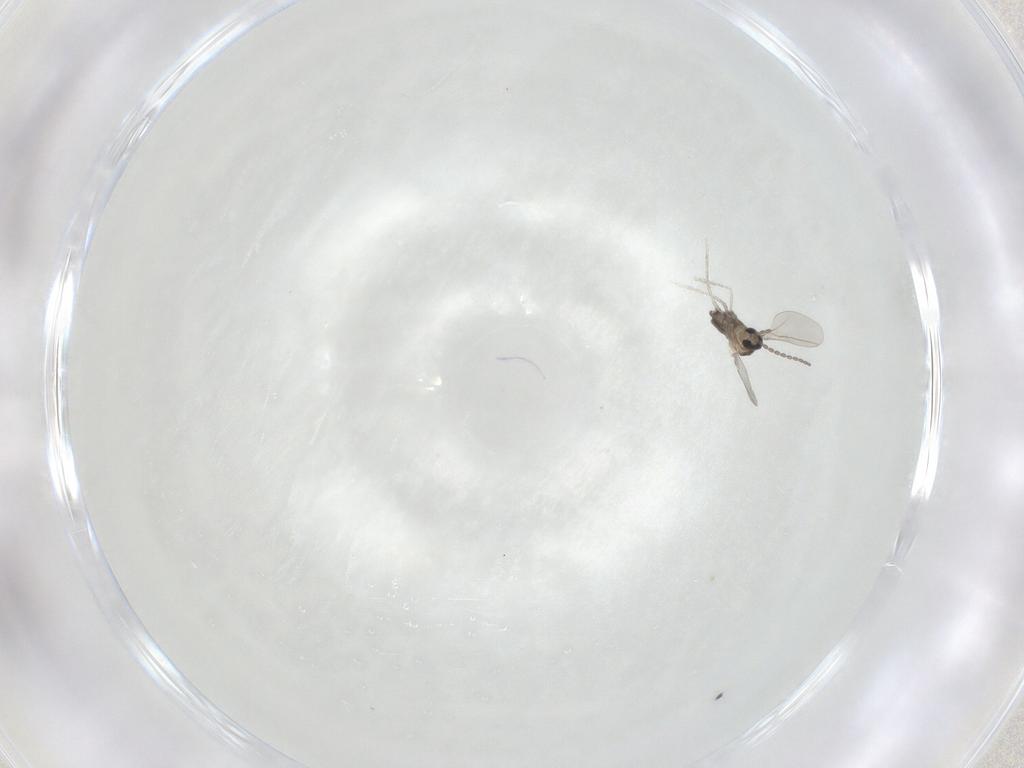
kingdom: Animalia
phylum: Arthropoda
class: Insecta
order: Diptera
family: Cecidomyiidae
